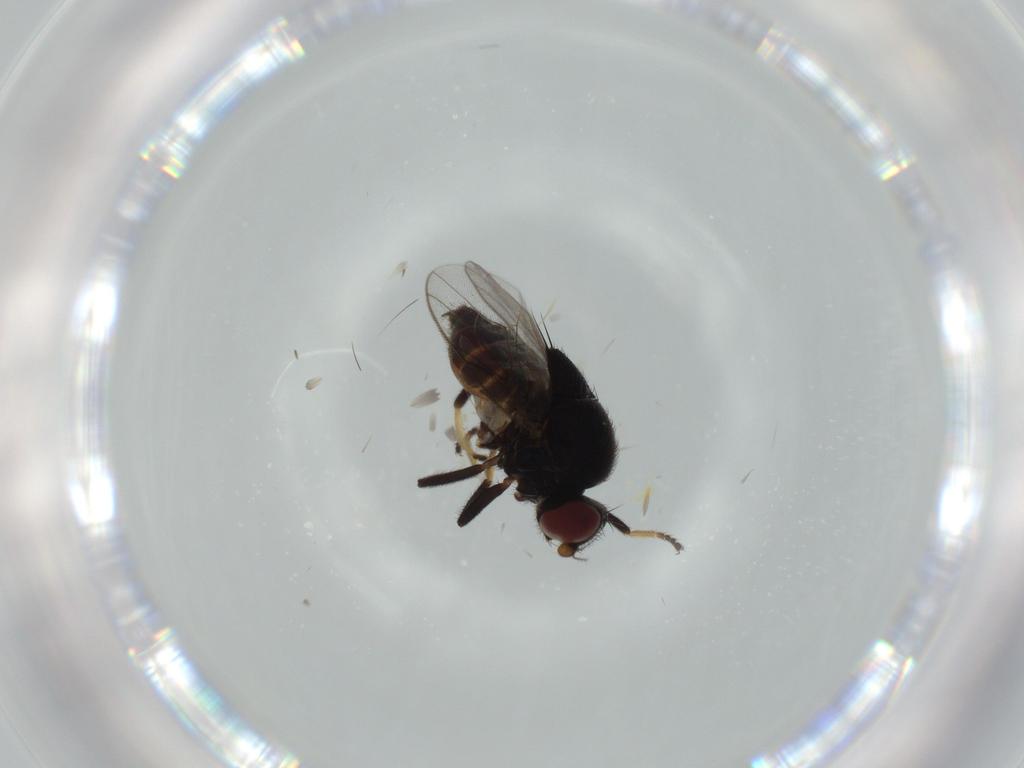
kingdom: Animalia
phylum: Arthropoda
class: Insecta
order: Diptera
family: Chloropidae
